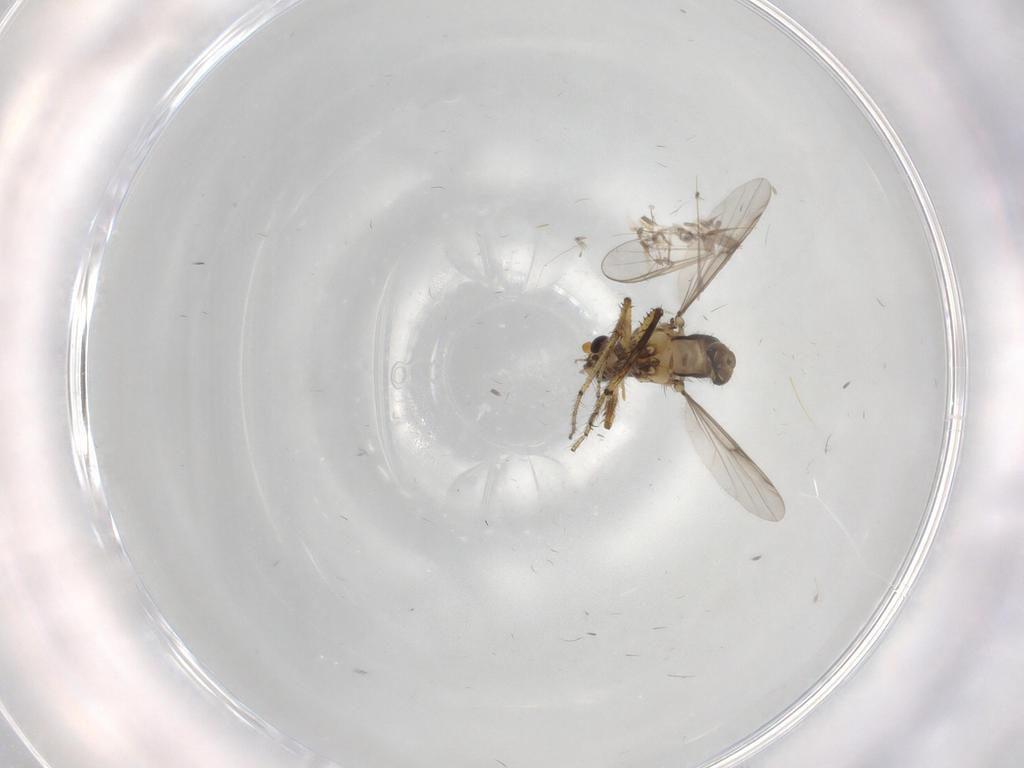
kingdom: Animalia
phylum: Arthropoda
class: Insecta
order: Diptera
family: Ceratopogonidae
